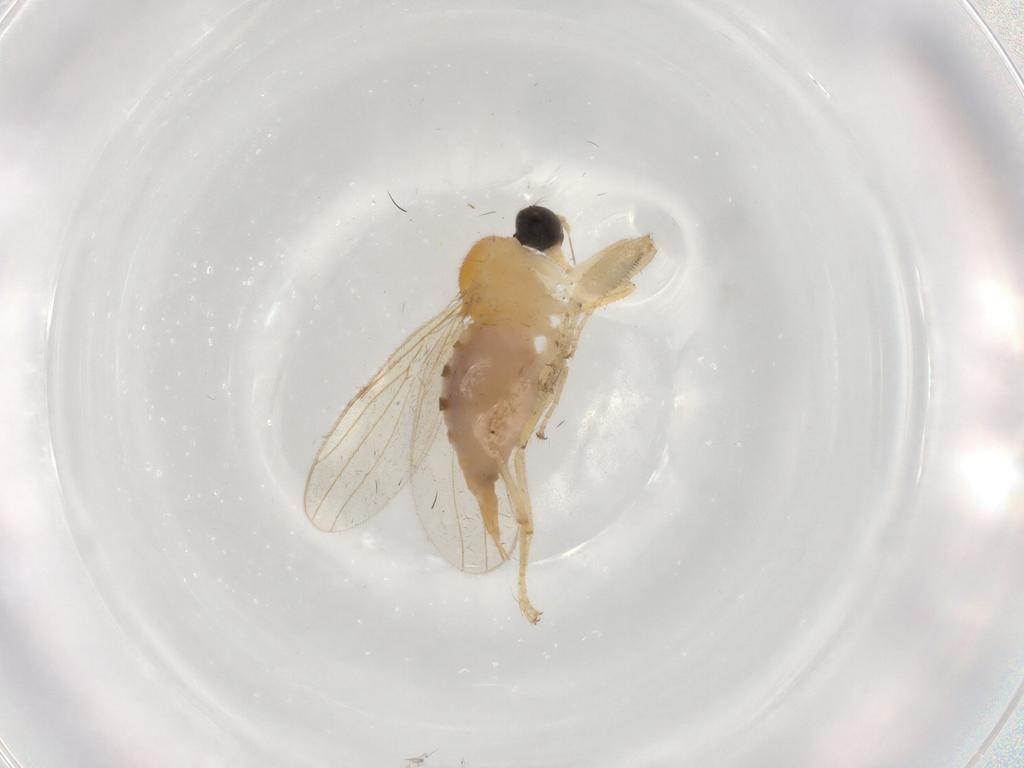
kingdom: Animalia
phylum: Arthropoda
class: Insecta
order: Diptera
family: Hybotidae
